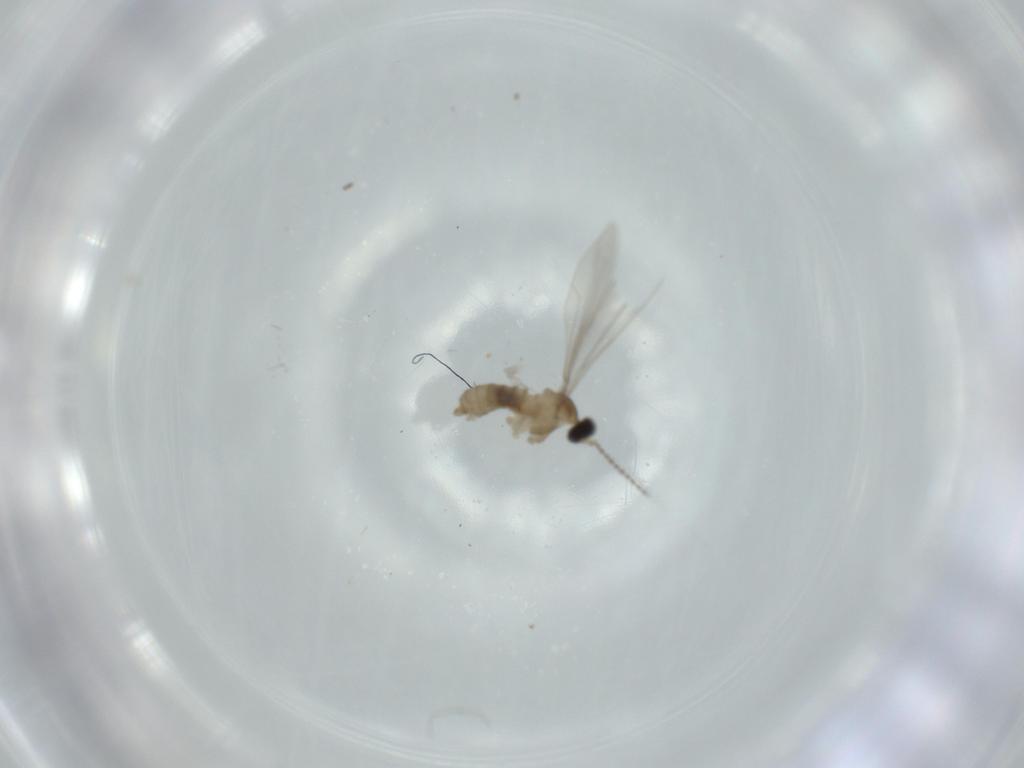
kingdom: Animalia
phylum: Arthropoda
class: Insecta
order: Diptera
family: Cecidomyiidae
